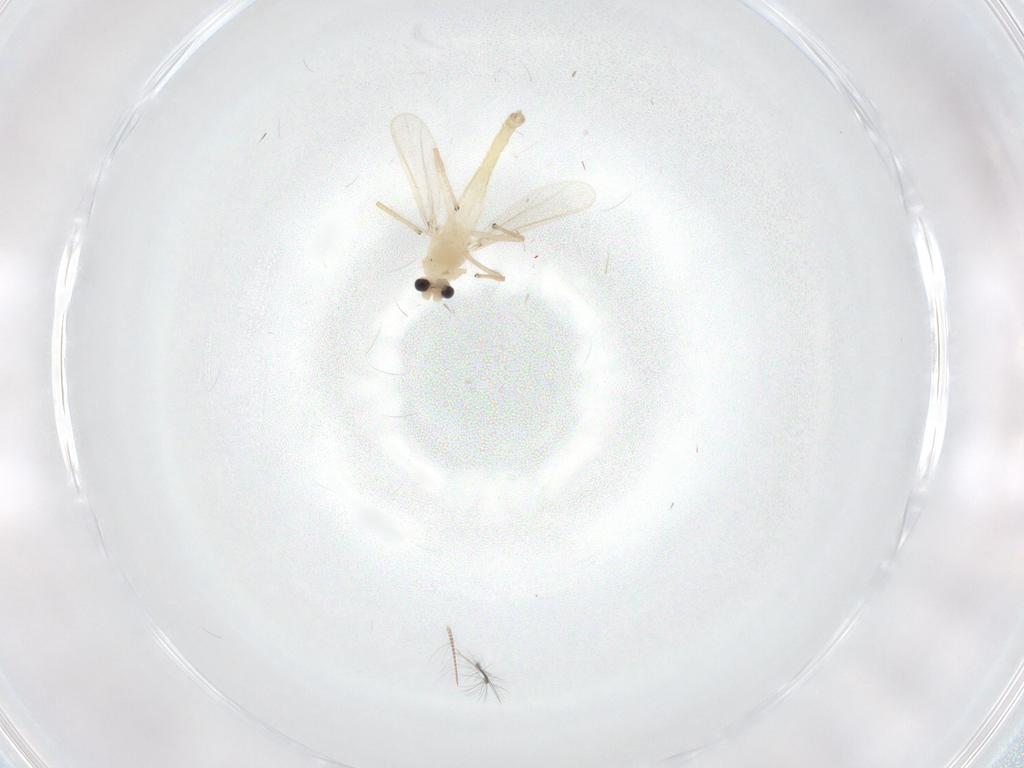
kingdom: Animalia
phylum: Arthropoda
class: Insecta
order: Diptera
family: Chironomidae
